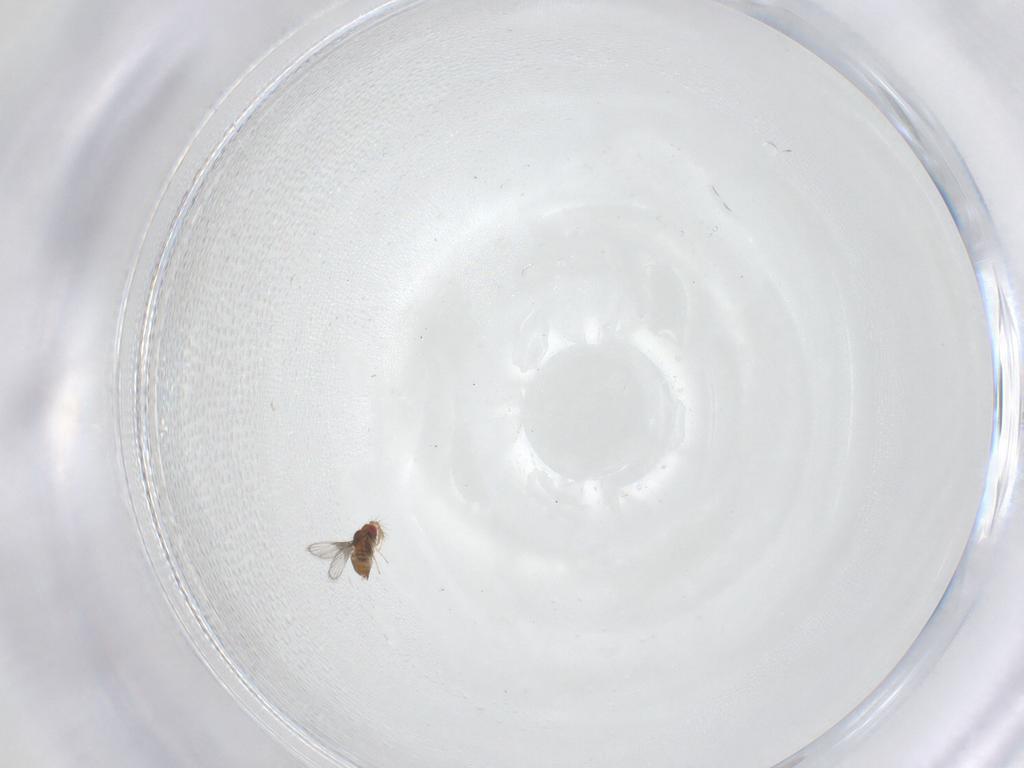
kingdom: Animalia
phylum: Arthropoda
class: Insecta
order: Hymenoptera
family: Trichogrammatidae
